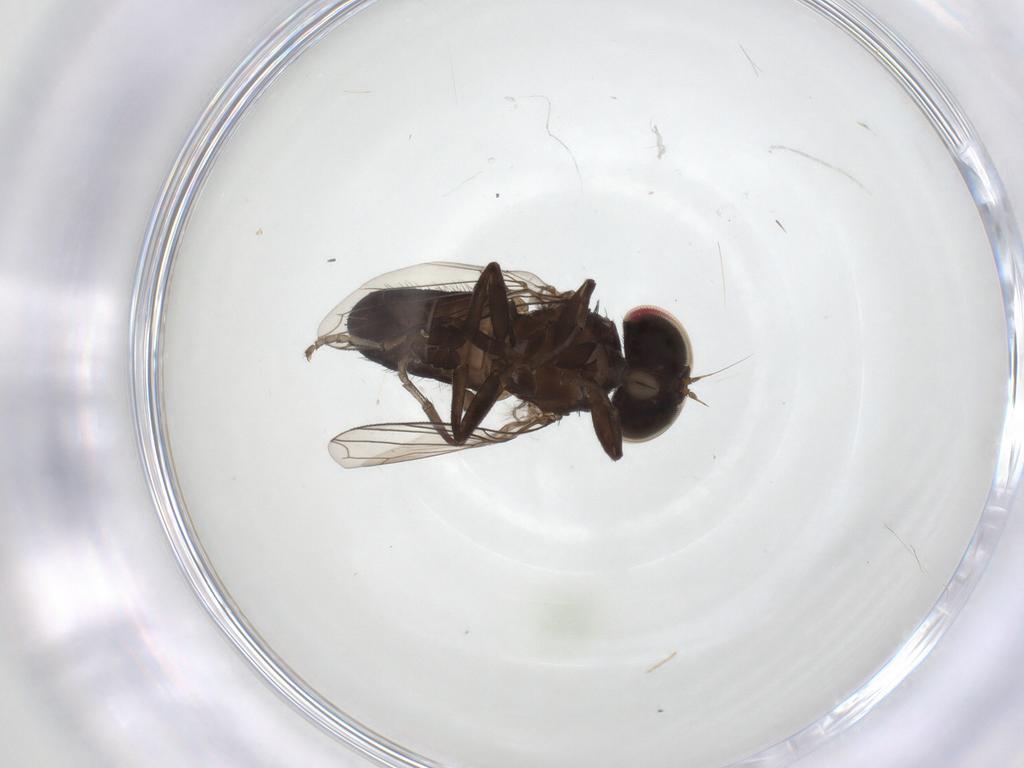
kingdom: Animalia
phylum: Arthropoda
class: Insecta
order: Diptera
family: Platypezidae
